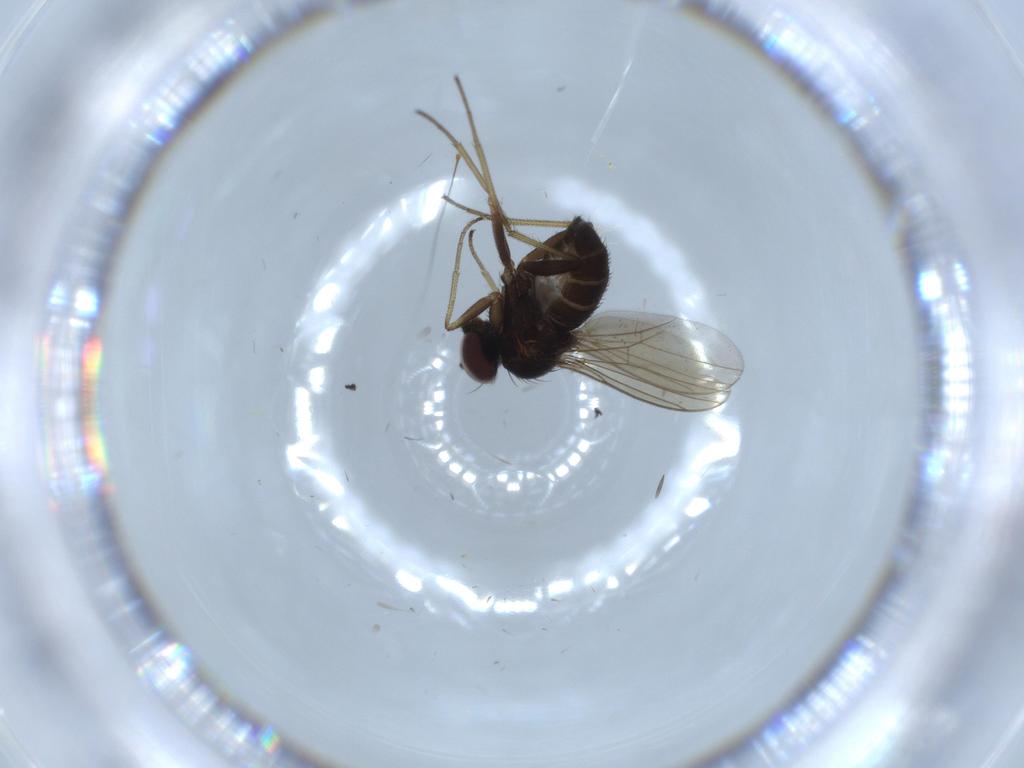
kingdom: Animalia
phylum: Arthropoda
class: Insecta
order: Diptera
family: Dolichopodidae
